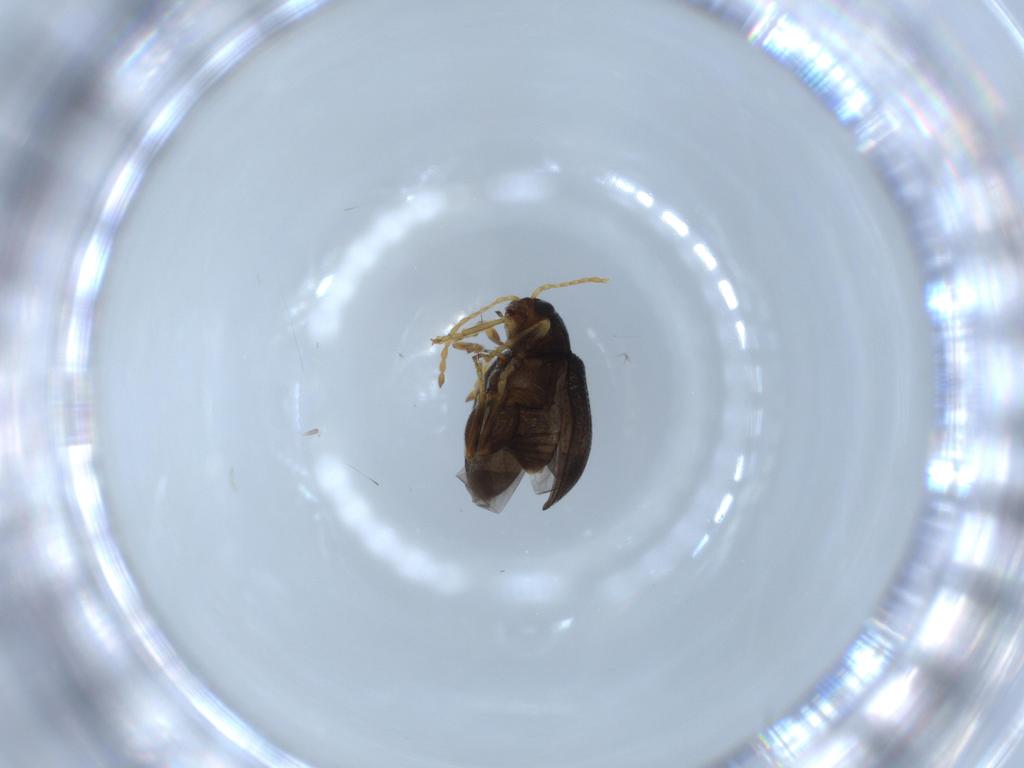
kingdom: Animalia
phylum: Arthropoda
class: Insecta
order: Coleoptera
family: Chrysomelidae
